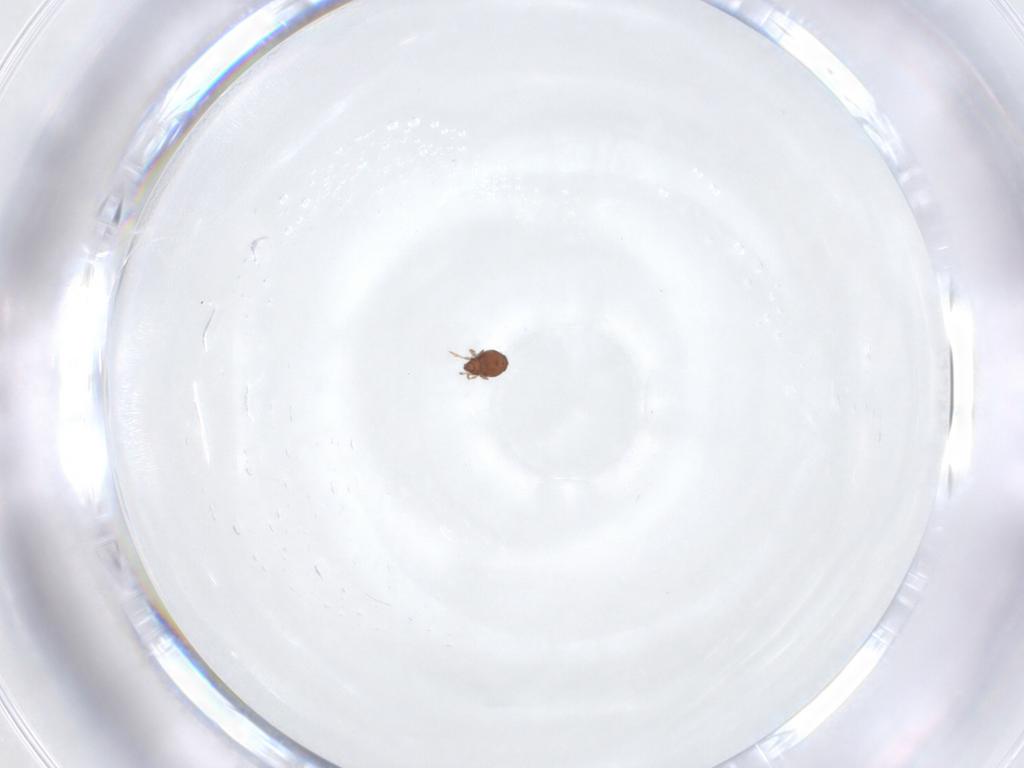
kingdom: Animalia
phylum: Arthropoda
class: Arachnida
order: Sarcoptiformes
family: Dendroeremaeidae
